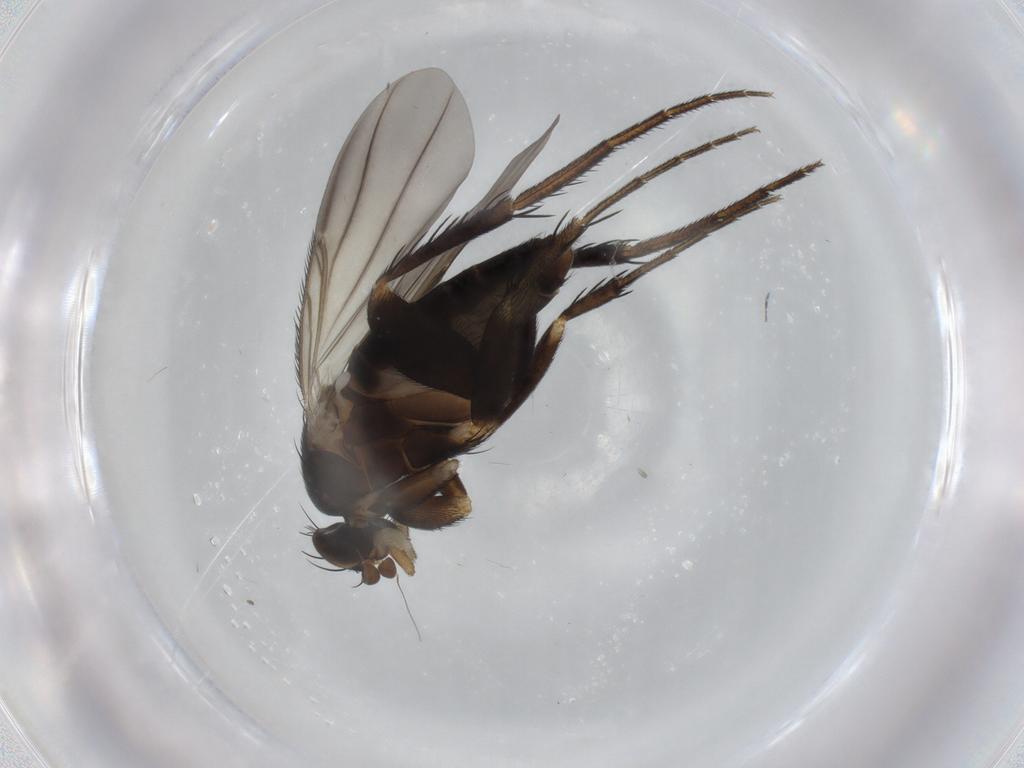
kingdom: Animalia
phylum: Arthropoda
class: Insecta
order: Diptera
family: Phoridae
